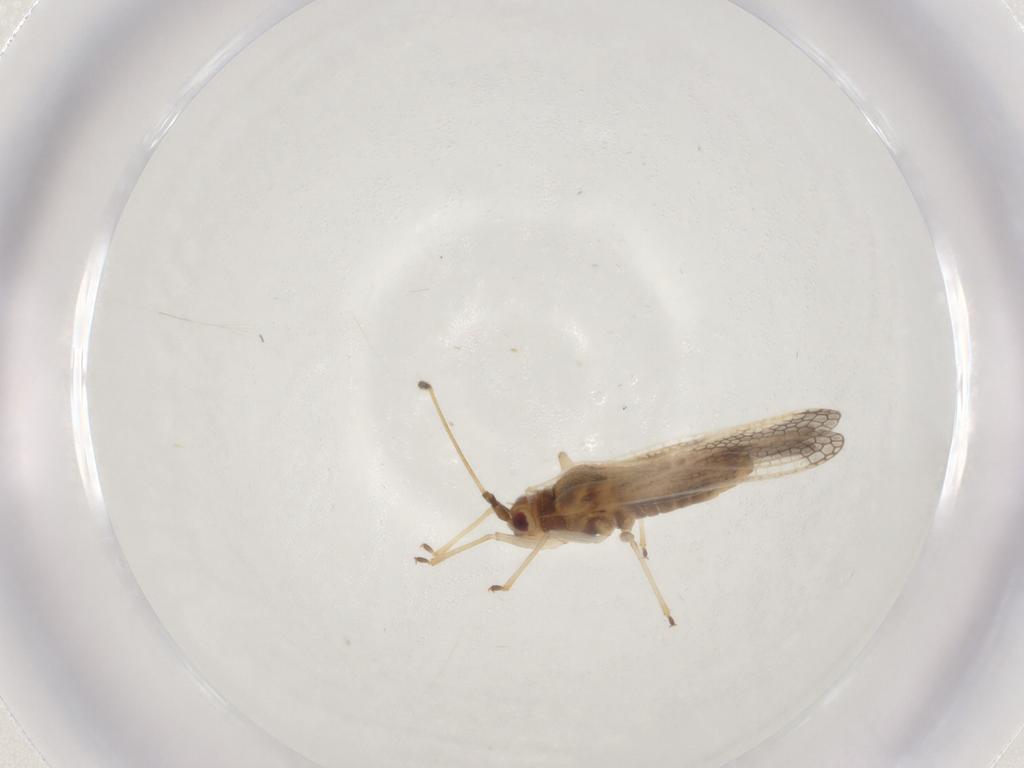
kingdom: Animalia
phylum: Arthropoda
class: Insecta
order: Hemiptera
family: Tingidae
